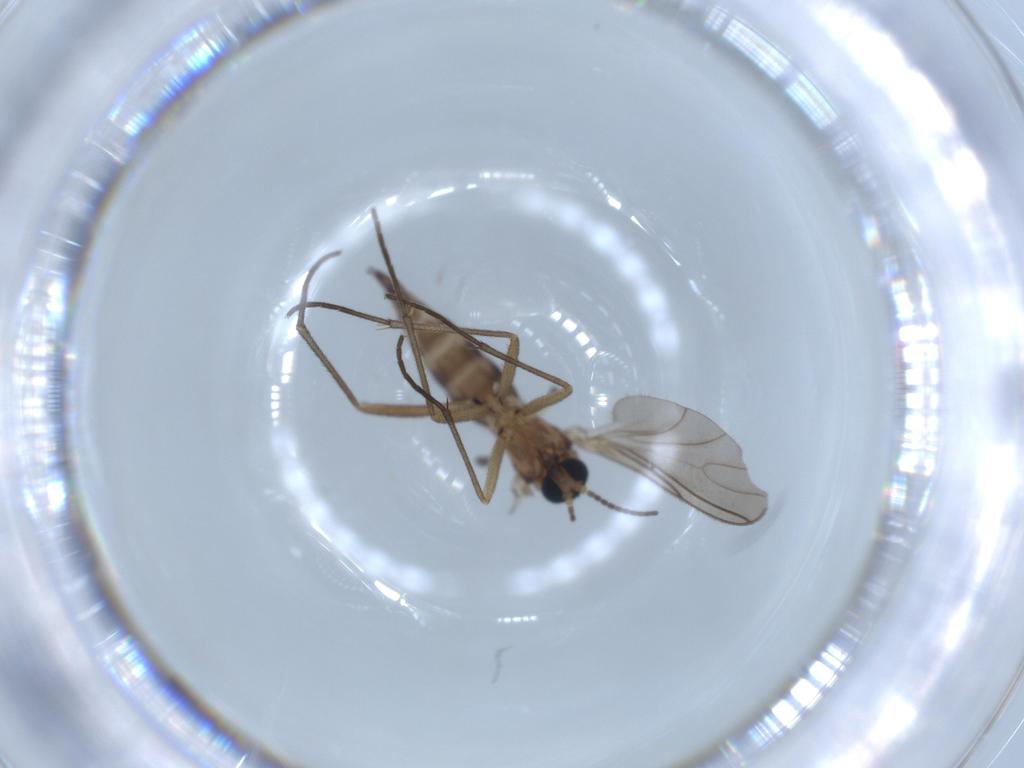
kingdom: Animalia
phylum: Arthropoda
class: Insecta
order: Diptera
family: Sciaridae
